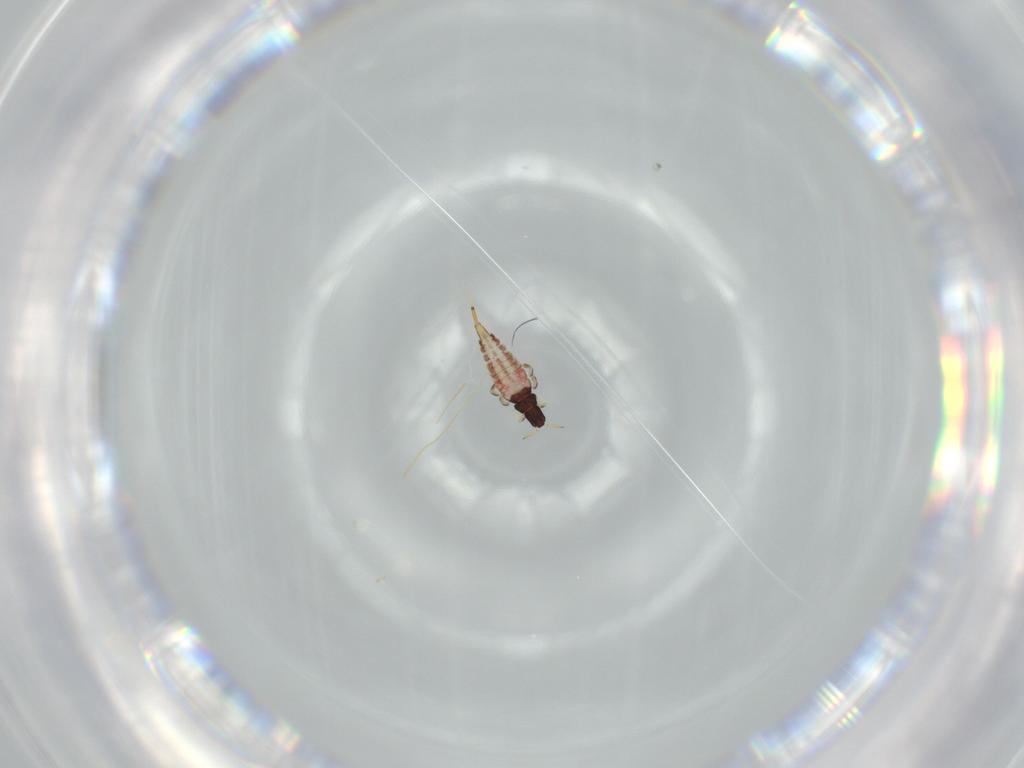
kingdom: Animalia
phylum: Arthropoda
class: Insecta
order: Thysanoptera
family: Phlaeothripidae
